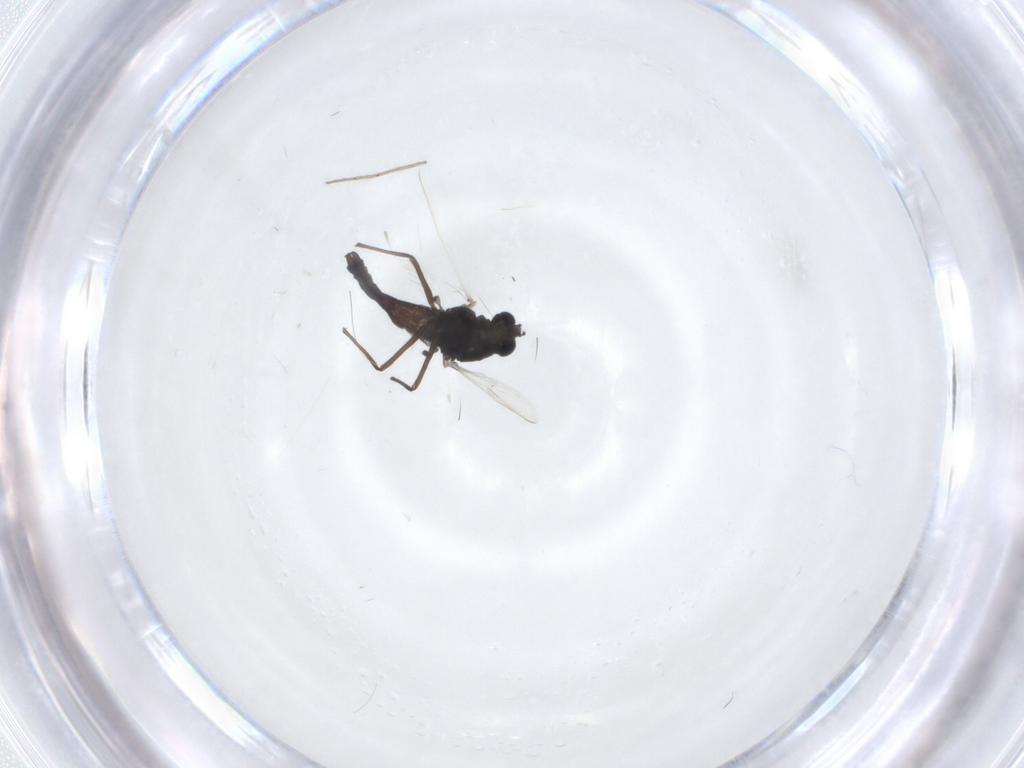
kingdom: Animalia
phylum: Arthropoda
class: Insecta
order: Diptera
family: Chironomidae
